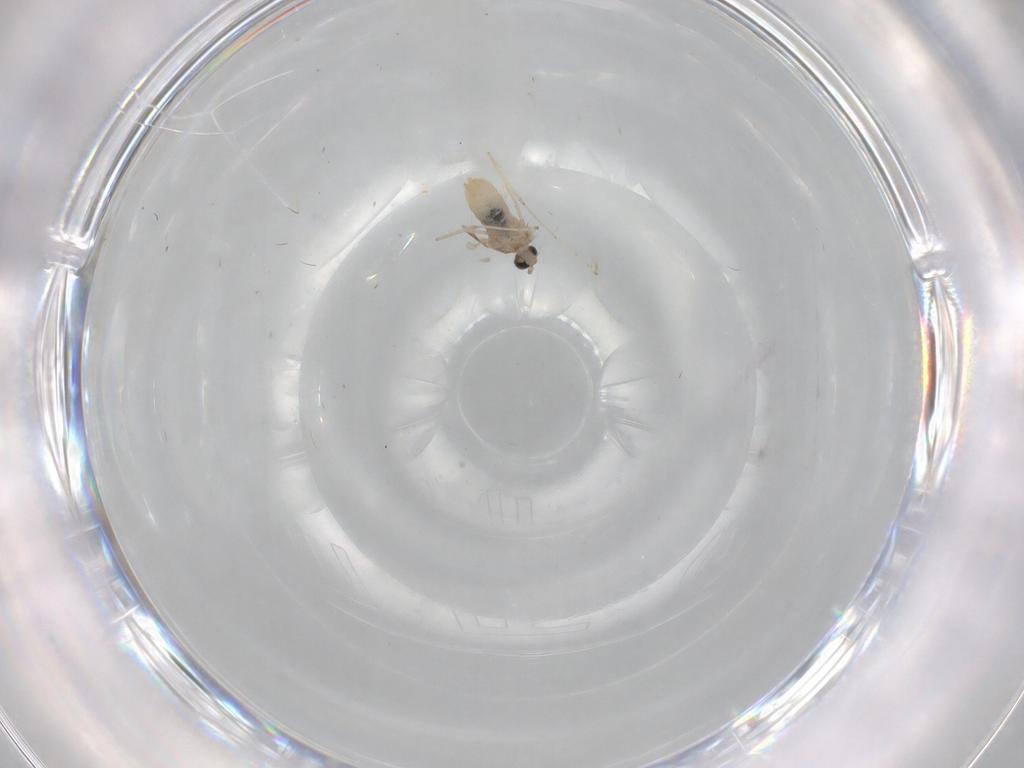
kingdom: Animalia
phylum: Arthropoda
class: Insecta
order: Diptera
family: Cecidomyiidae
